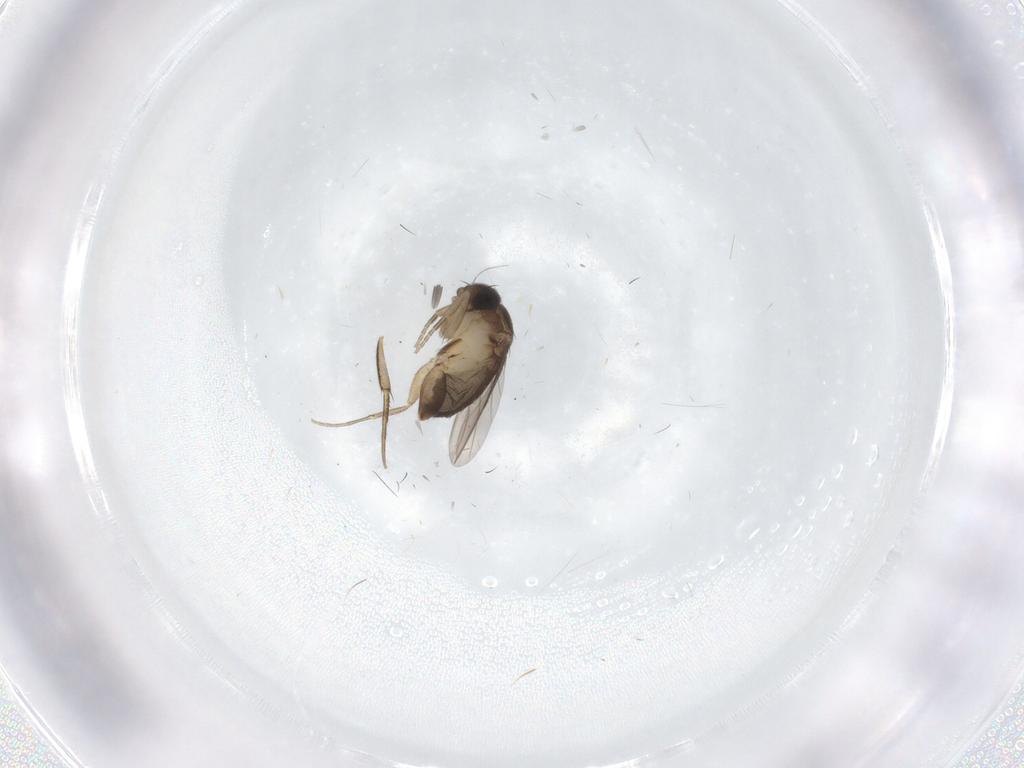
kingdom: Animalia
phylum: Arthropoda
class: Insecta
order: Diptera
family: Phoridae
